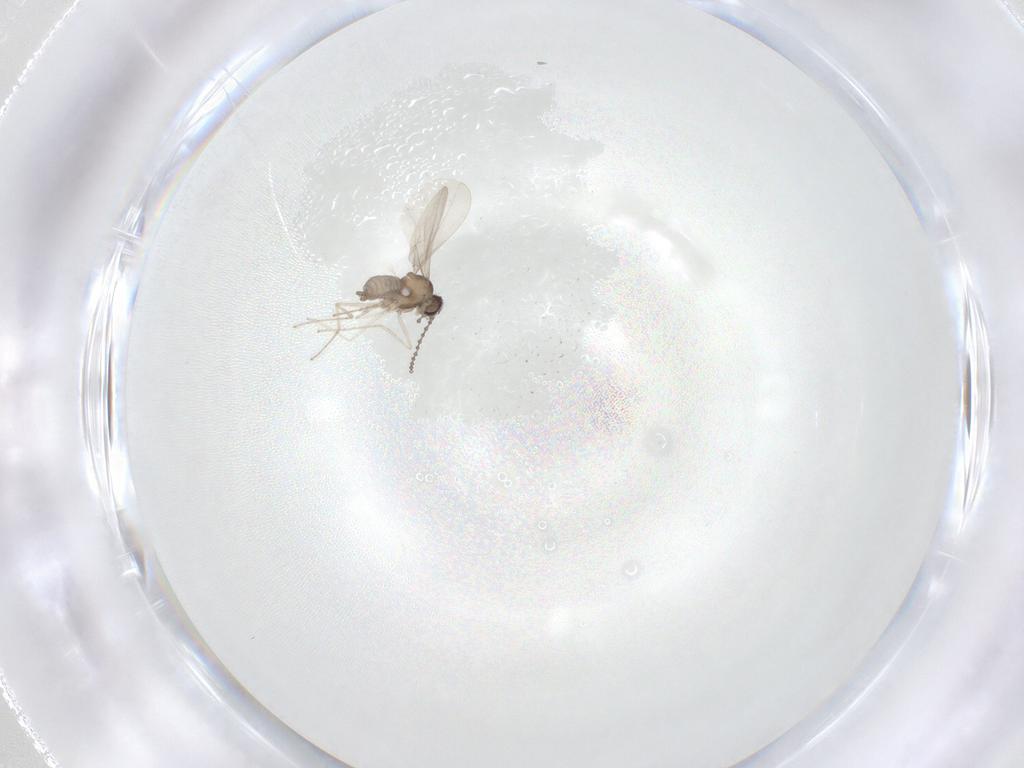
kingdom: Animalia
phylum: Arthropoda
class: Insecta
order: Diptera
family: Cecidomyiidae
